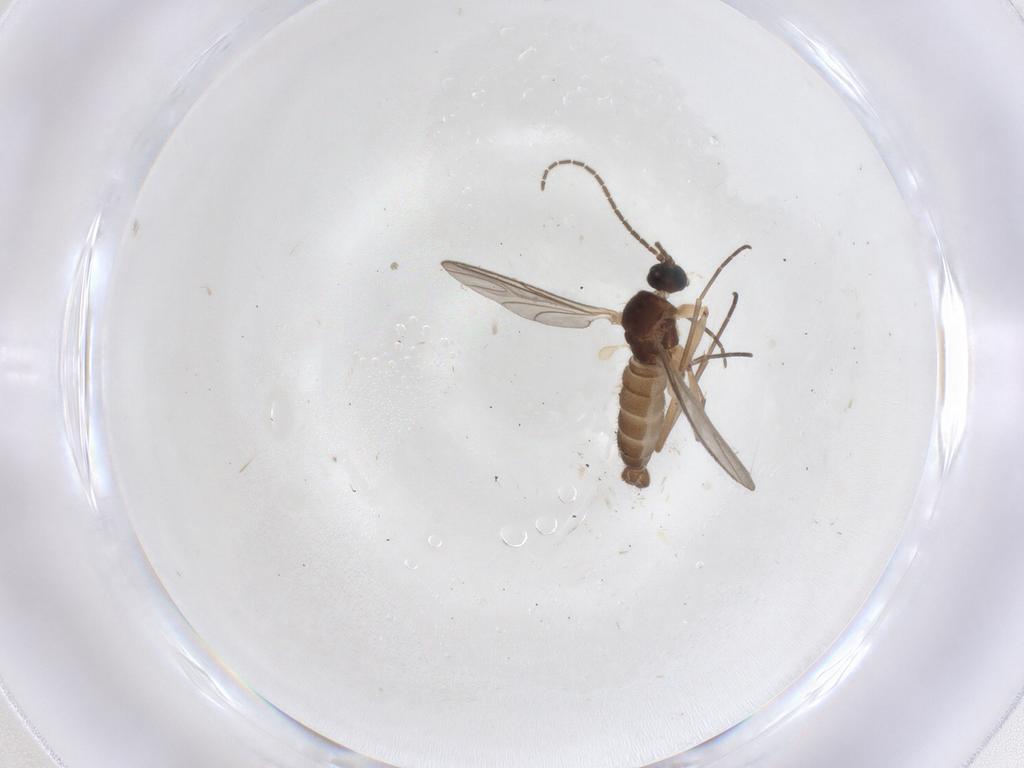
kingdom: Animalia
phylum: Arthropoda
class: Insecta
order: Diptera
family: Sciaridae
